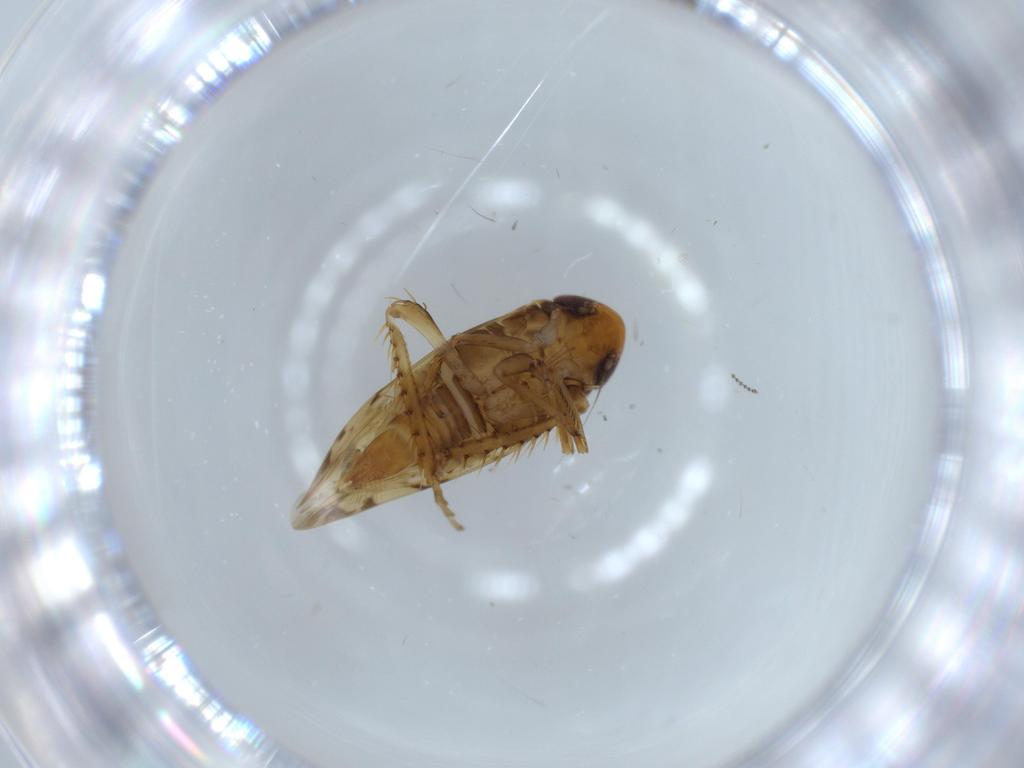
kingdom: Animalia
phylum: Arthropoda
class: Insecta
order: Hemiptera
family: Cicadellidae
